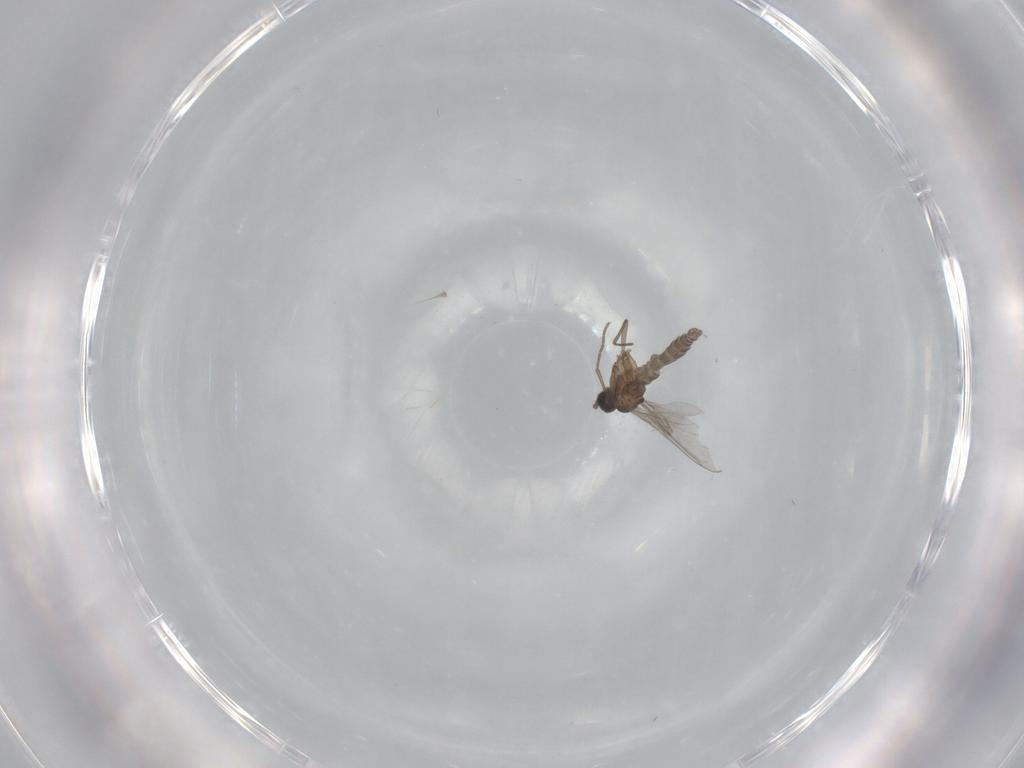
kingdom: Animalia
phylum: Arthropoda
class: Insecta
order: Diptera
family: Sciaridae
